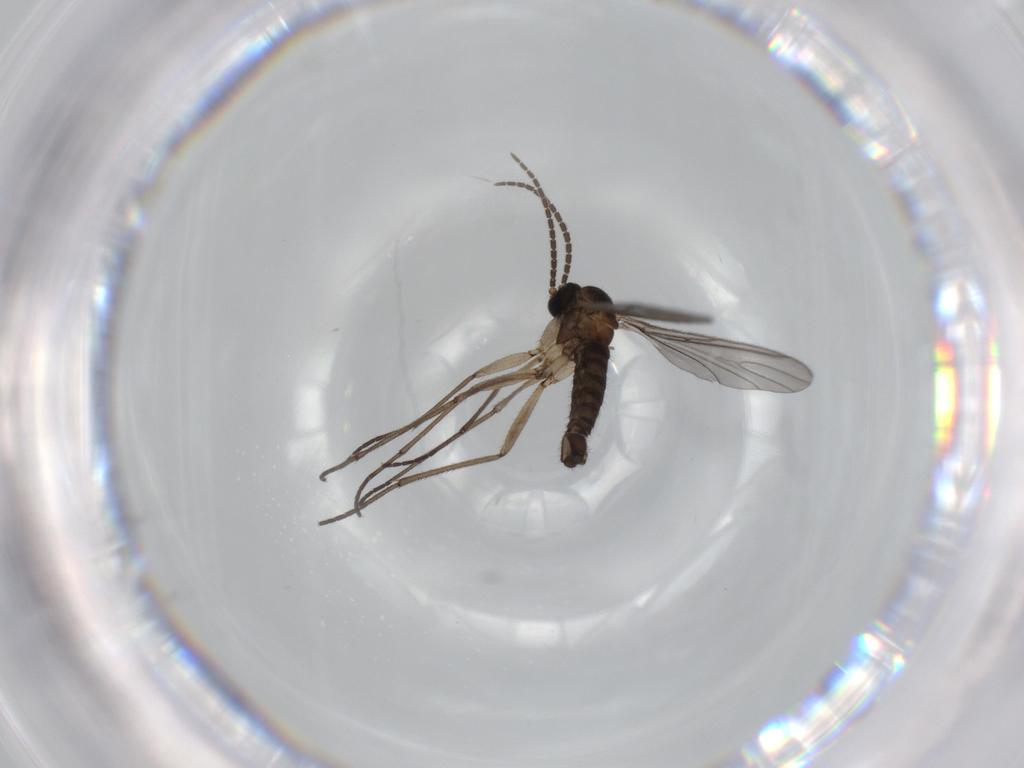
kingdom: Animalia
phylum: Arthropoda
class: Insecta
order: Diptera
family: Sciaridae
